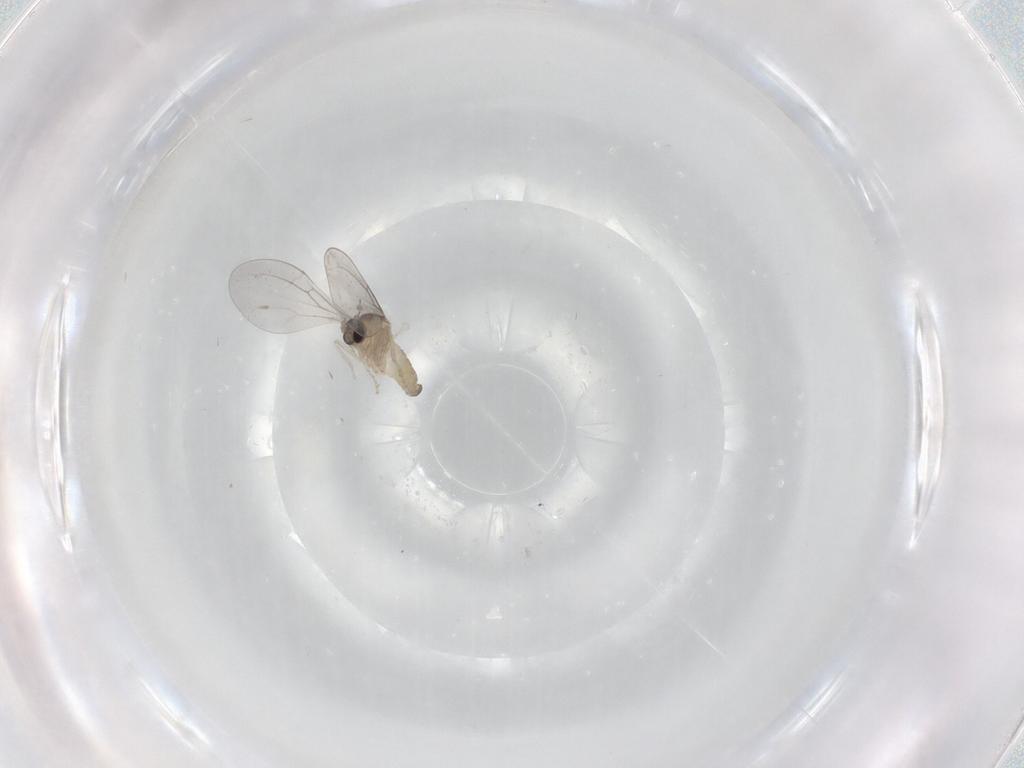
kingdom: Animalia
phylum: Arthropoda
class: Insecta
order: Diptera
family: Cecidomyiidae
